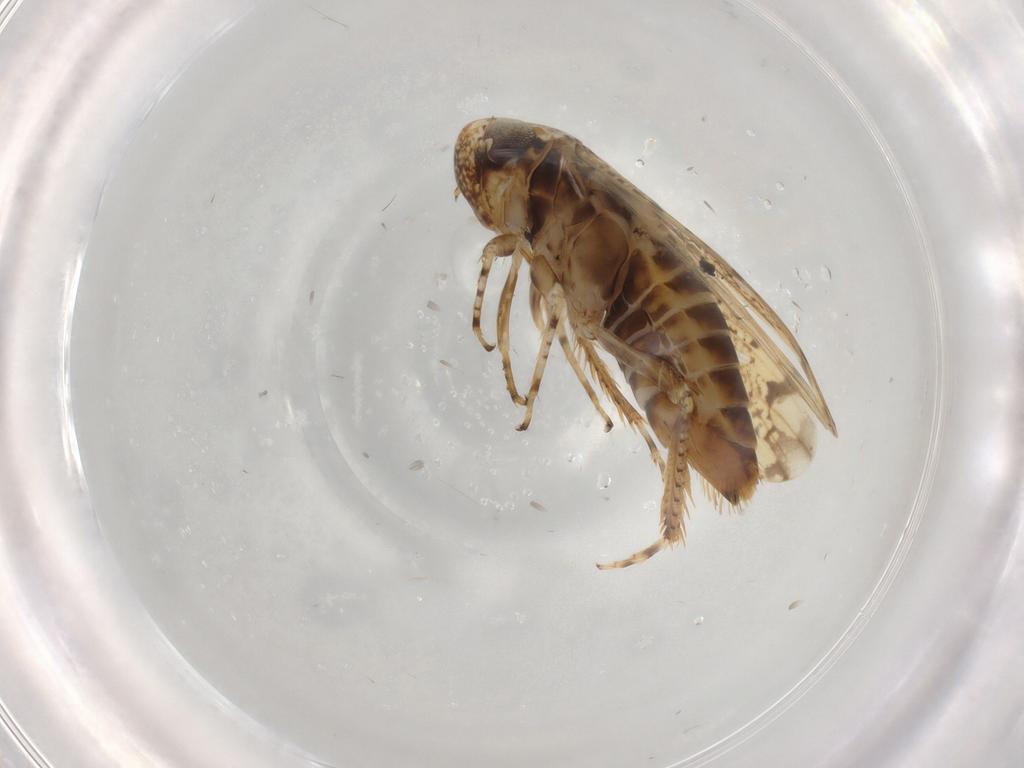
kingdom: Animalia
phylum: Arthropoda
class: Insecta
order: Hemiptera
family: Cicadellidae
